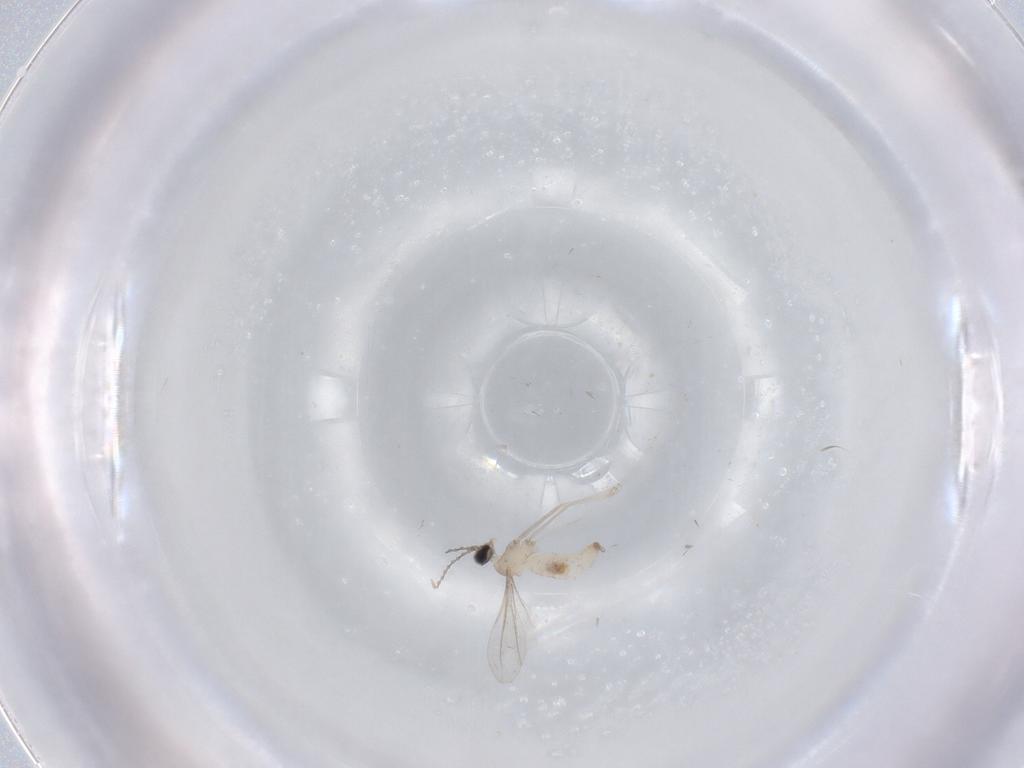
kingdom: Animalia
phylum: Arthropoda
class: Insecta
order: Diptera
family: Cecidomyiidae
